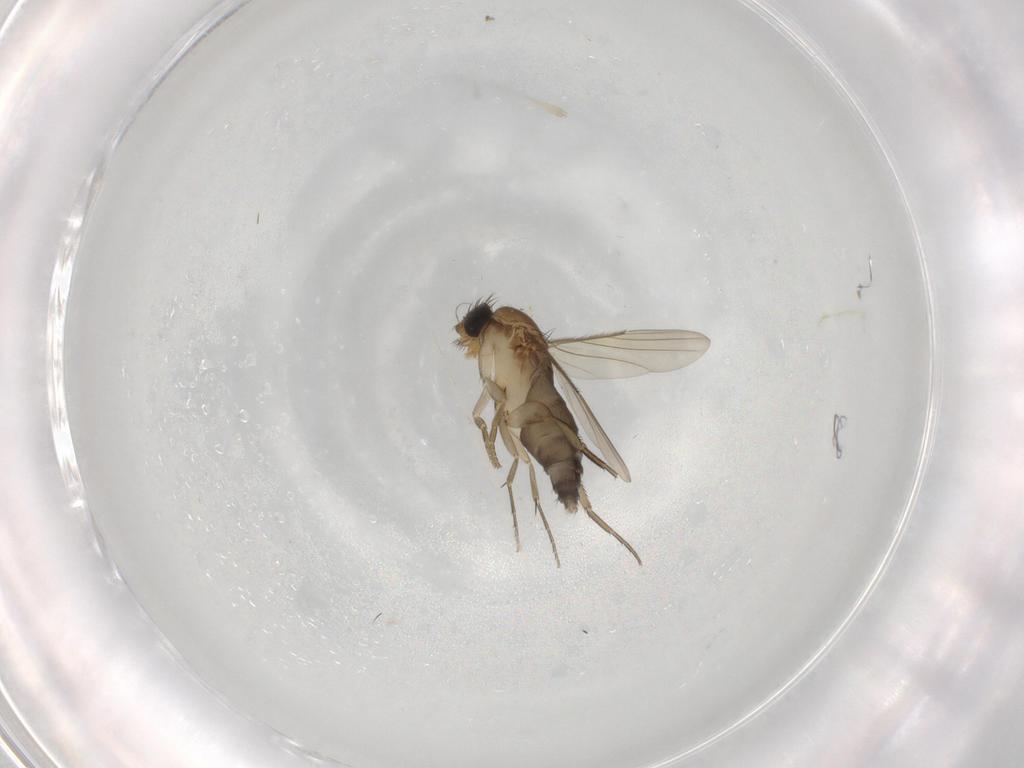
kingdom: Animalia
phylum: Arthropoda
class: Insecta
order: Diptera
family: Phoridae
